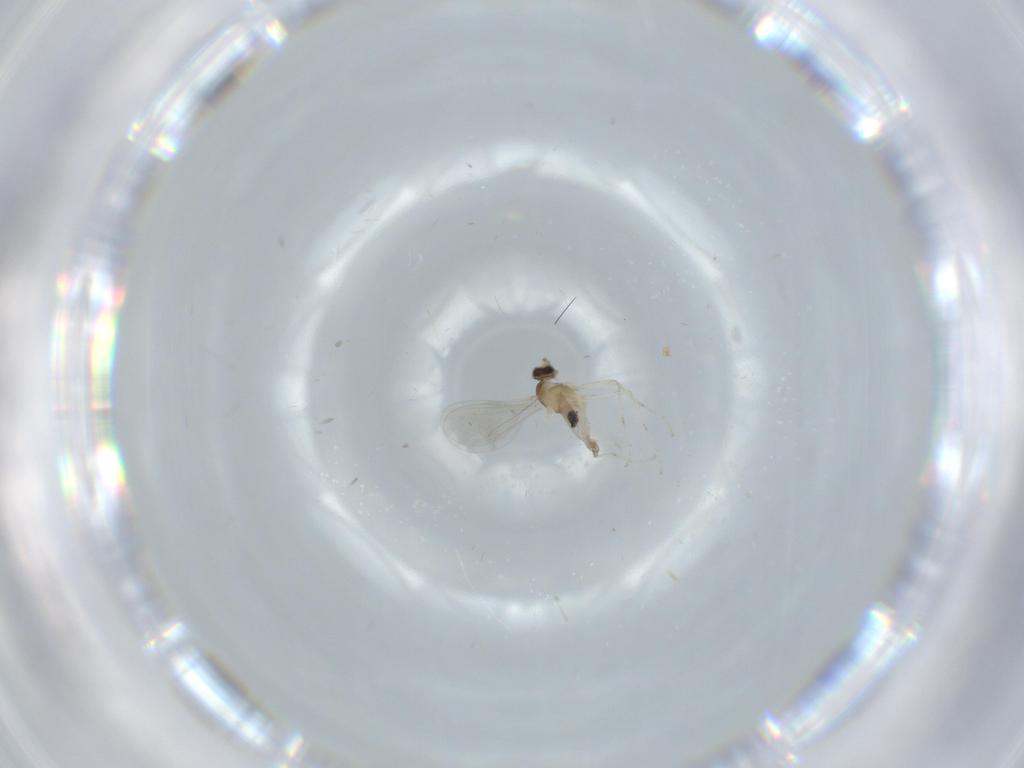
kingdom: Animalia
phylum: Arthropoda
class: Insecta
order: Diptera
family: Cecidomyiidae
